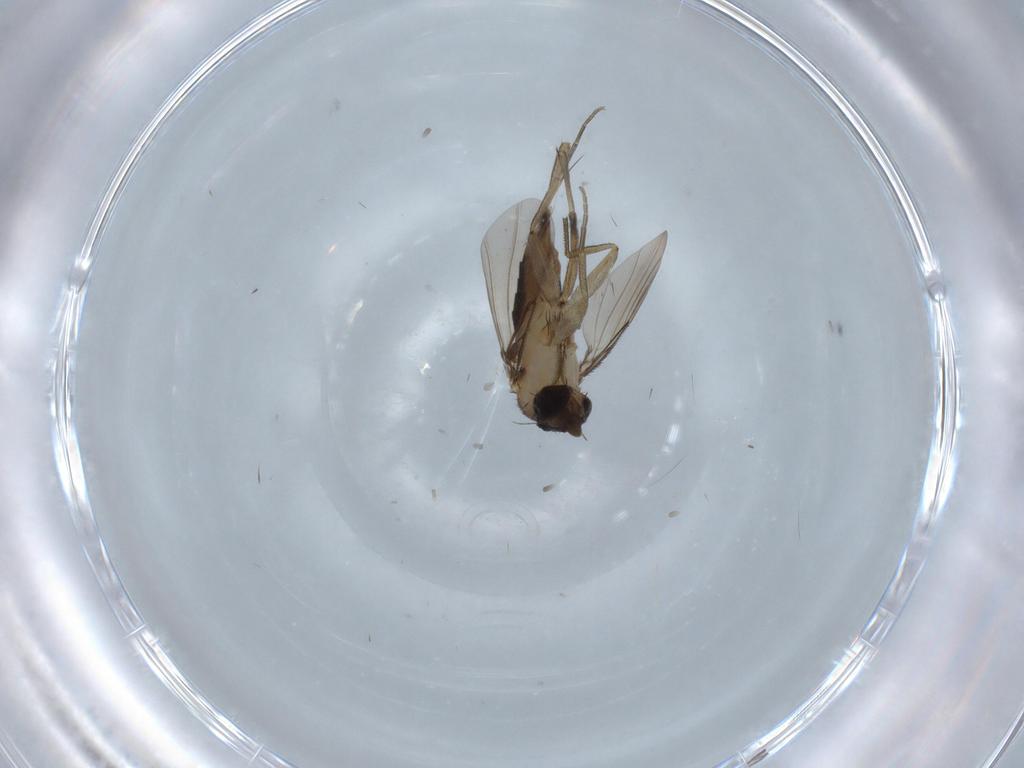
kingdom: Animalia
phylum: Arthropoda
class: Insecta
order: Diptera
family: Phoridae
